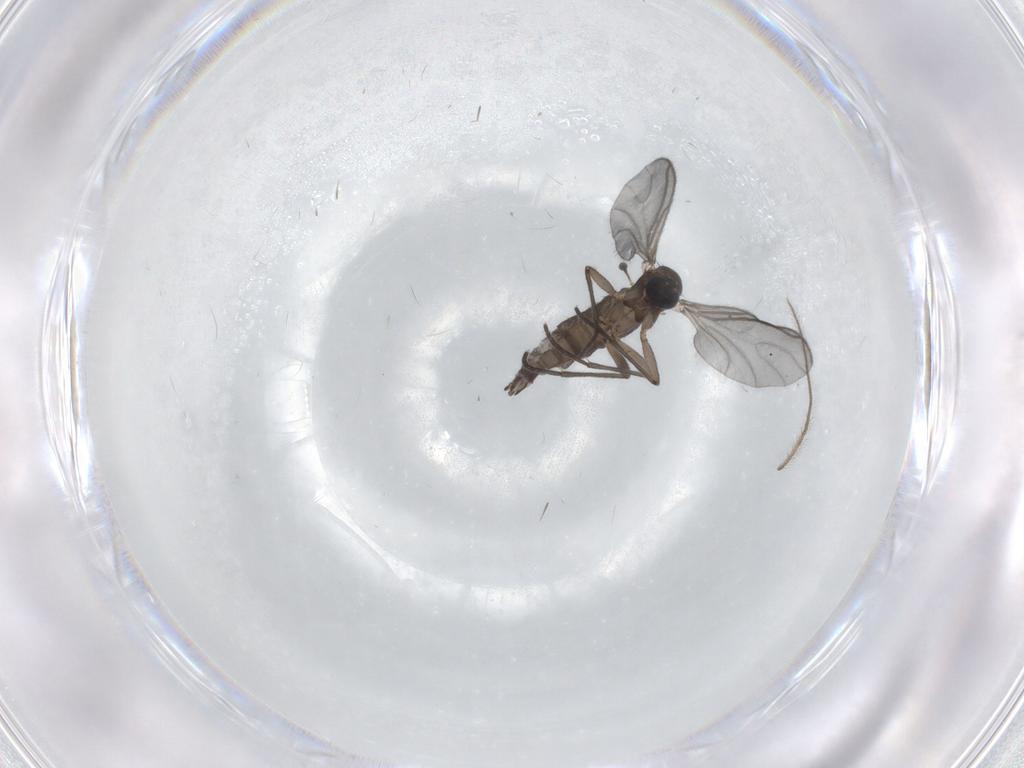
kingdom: Animalia
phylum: Arthropoda
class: Insecta
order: Diptera
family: Sciaridae
